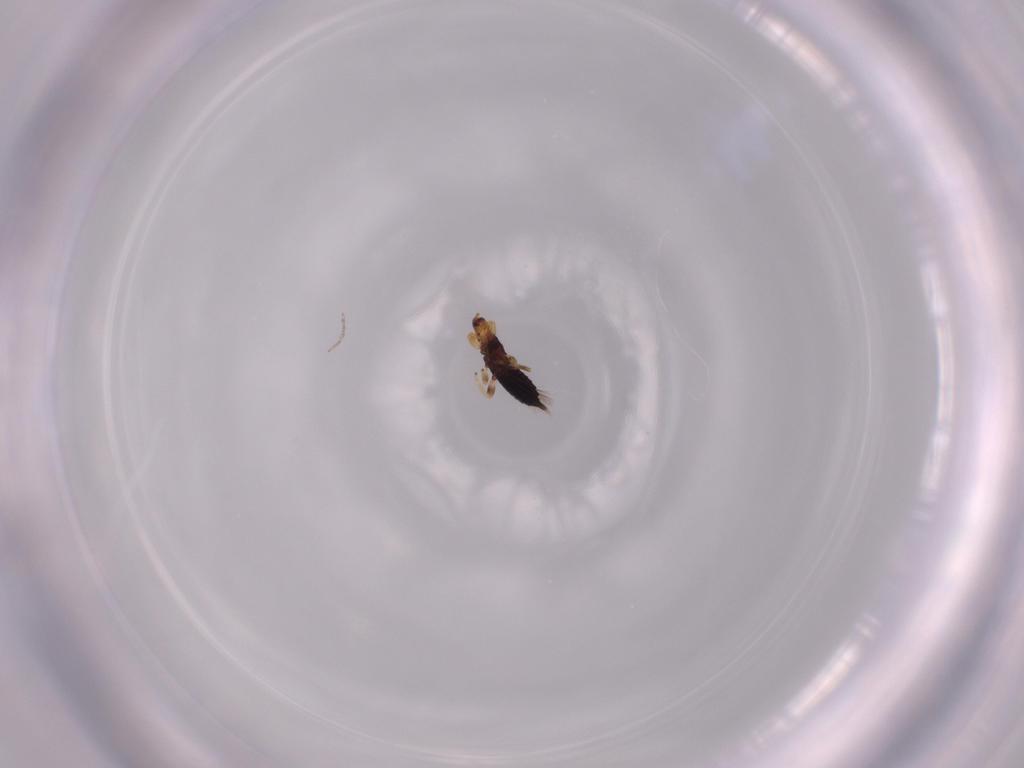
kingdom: Animalia
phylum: Arthropoda
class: Insecta
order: Thysanoptera
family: Phlaeothripidae
